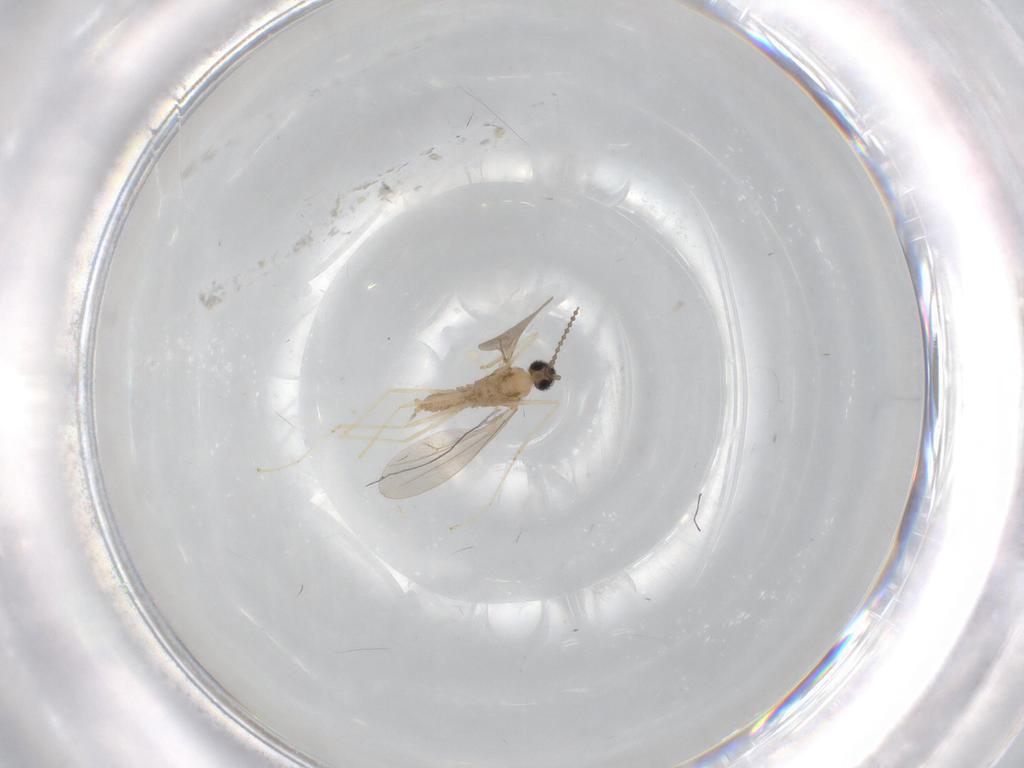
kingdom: Animalia
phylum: Arthropoda
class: Insecta
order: Diptera
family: Cecidomyiidae
